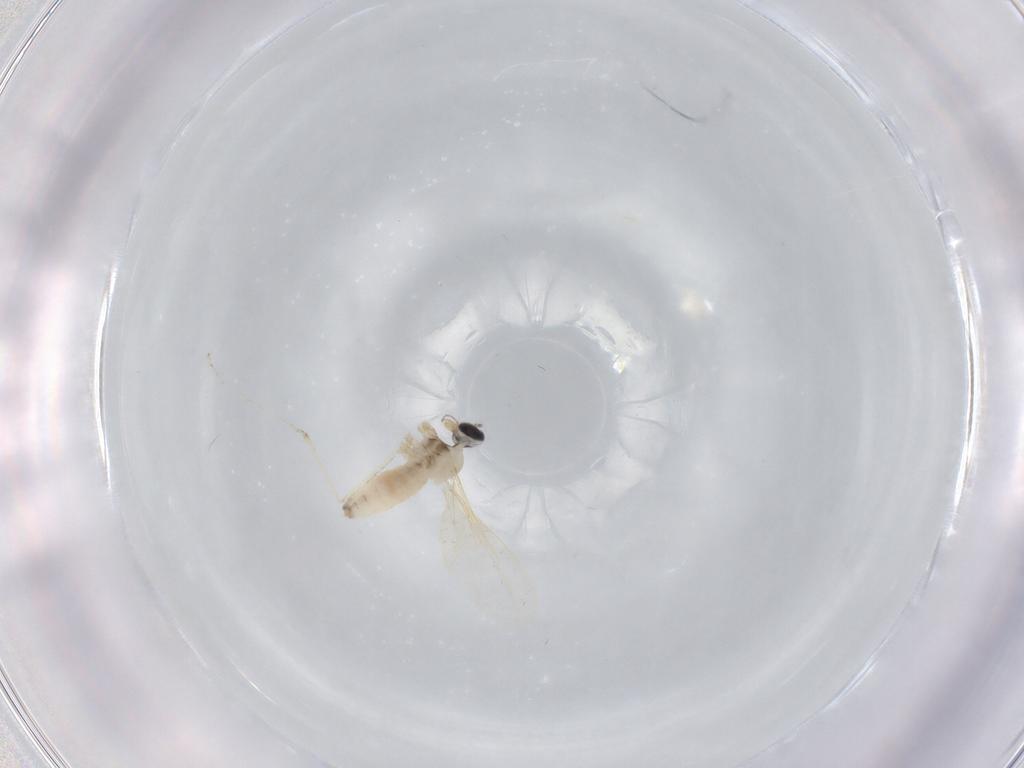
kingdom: Animalia
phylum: Arthropoda
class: Insecta
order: Diptera
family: Cecidomyiidae
